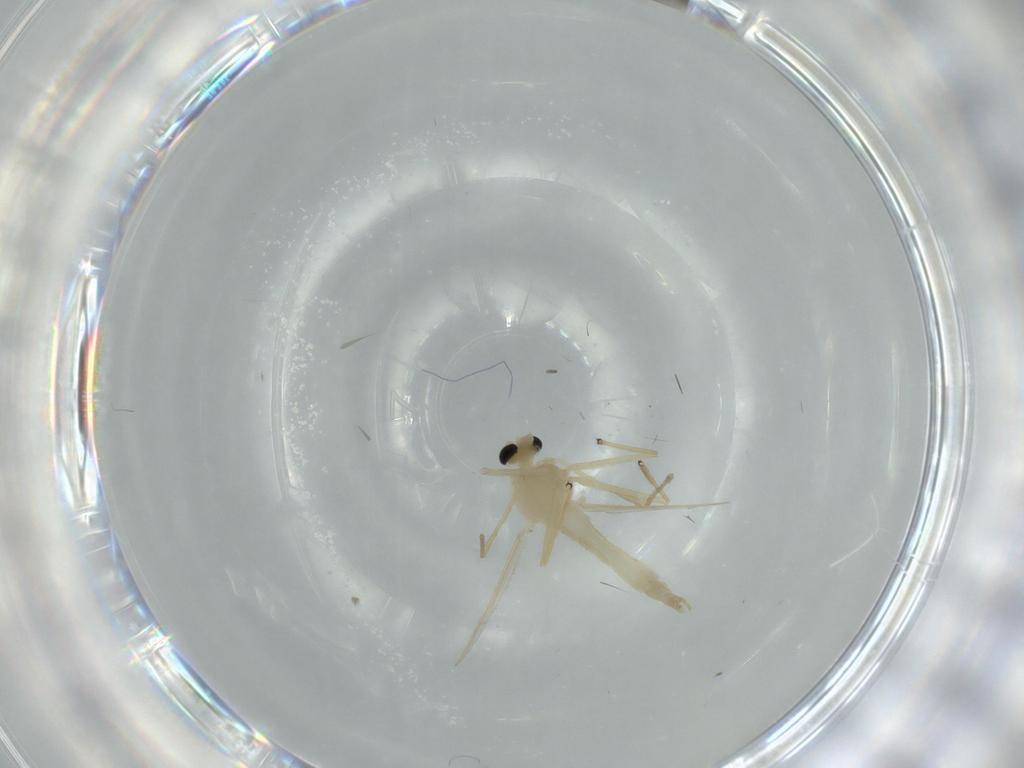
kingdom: Animalia
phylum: Arthropoda
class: Insecta
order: Diptera
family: Chironomidae
